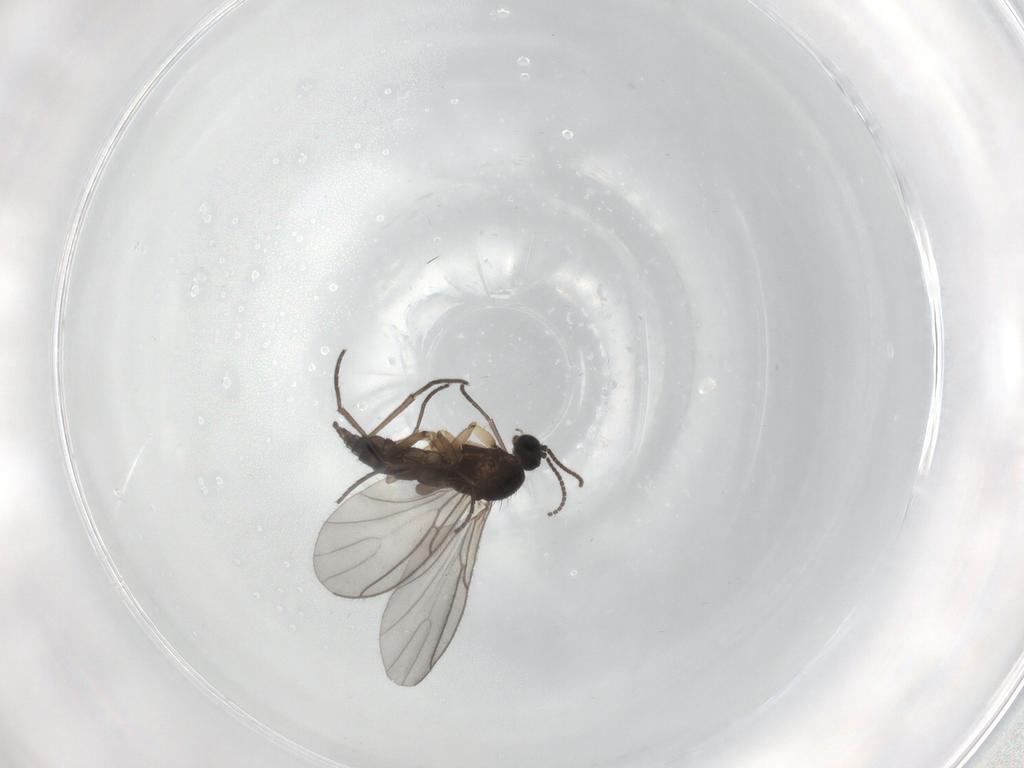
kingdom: Animalia
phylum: Arthropoda
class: Insecta
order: Diptera
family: Sciaridae
